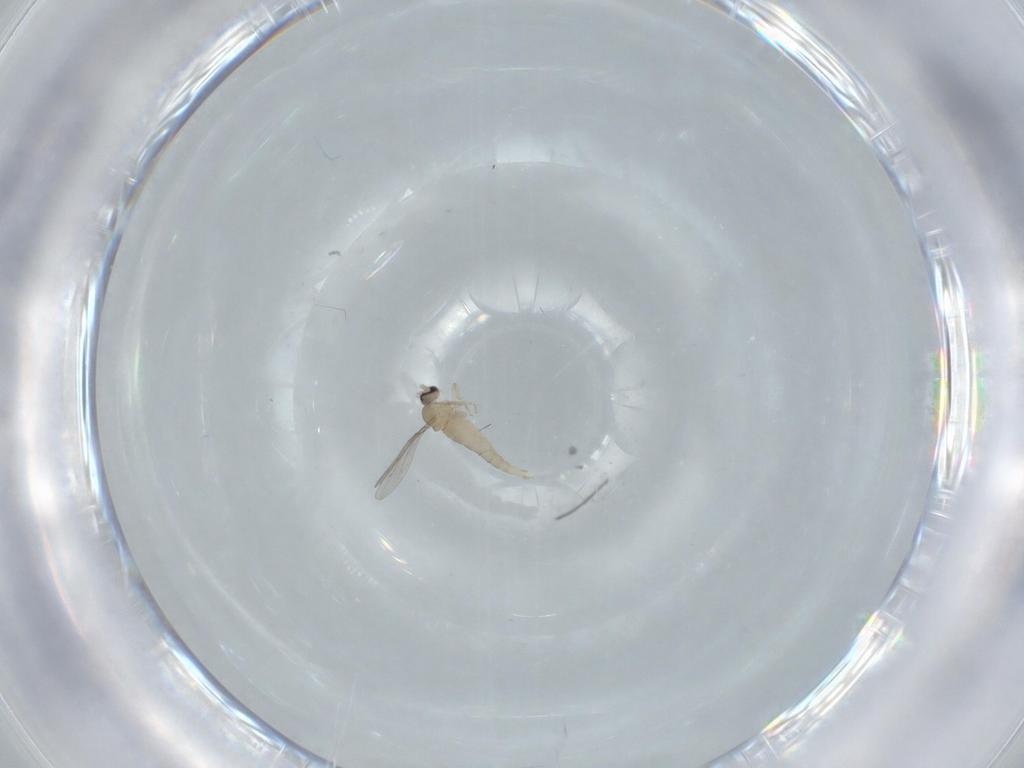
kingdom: Animalia
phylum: Arthropoda
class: Insecta
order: Diptera
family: Cecidomyiidae
